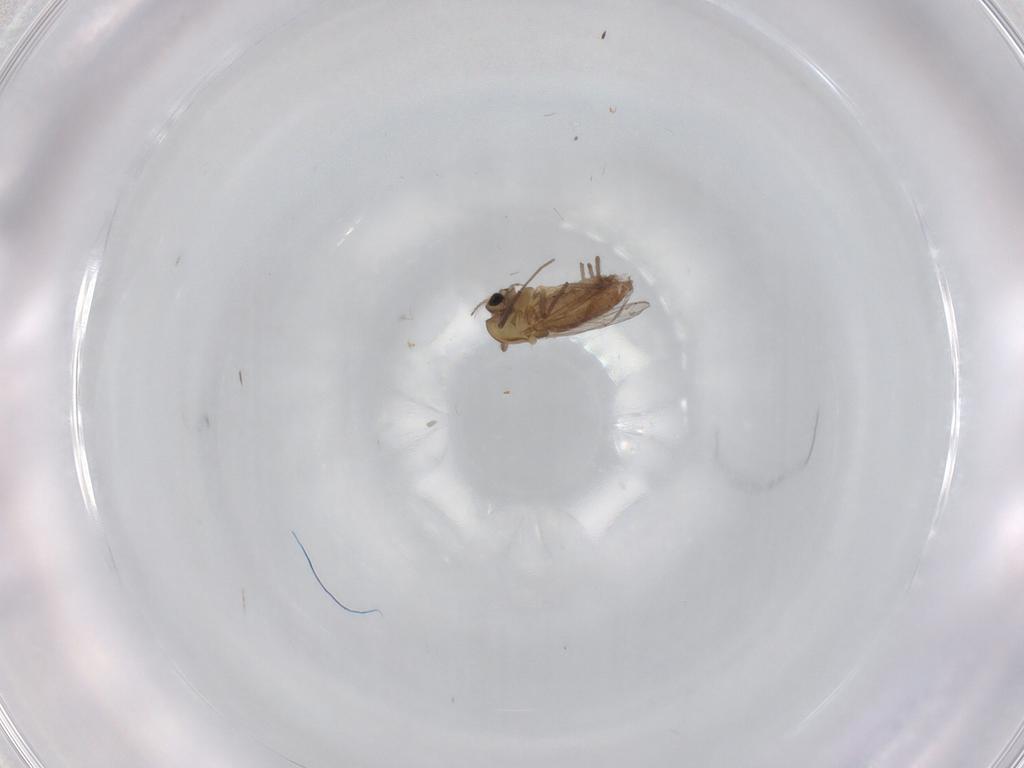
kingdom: Animalia
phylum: Arthropoda
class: Insecta
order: Diptera
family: Chironomidae
